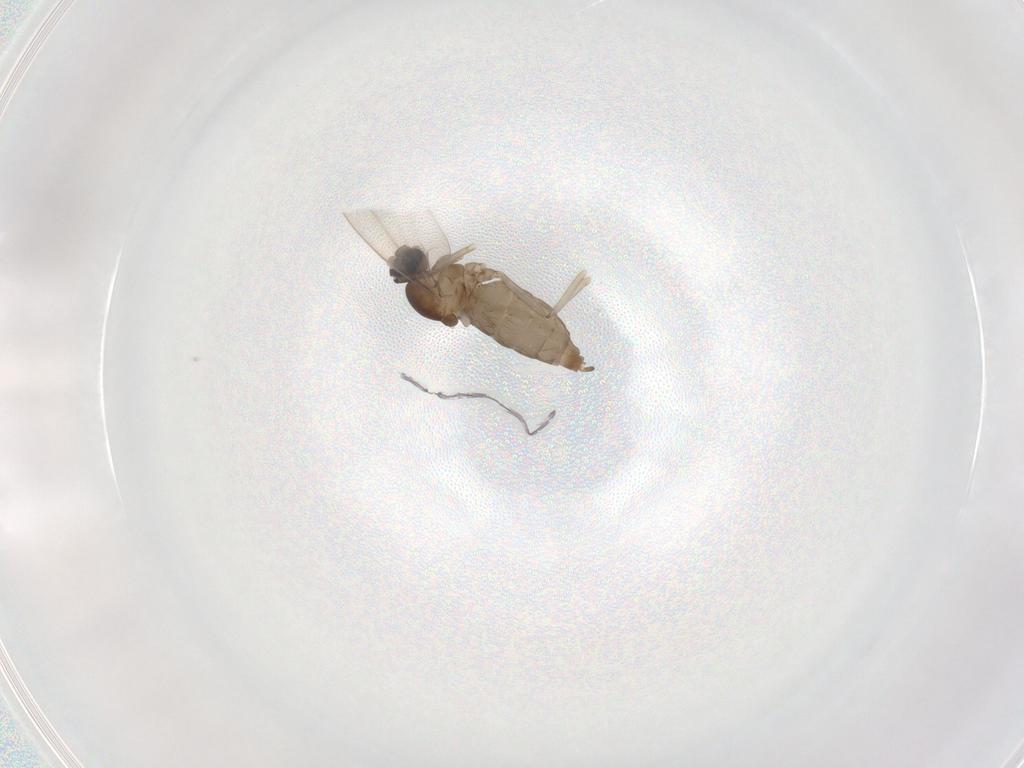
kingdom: Animalia
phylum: Arthropoda
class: Insecta
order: Diptera
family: Cecidomyiidae
